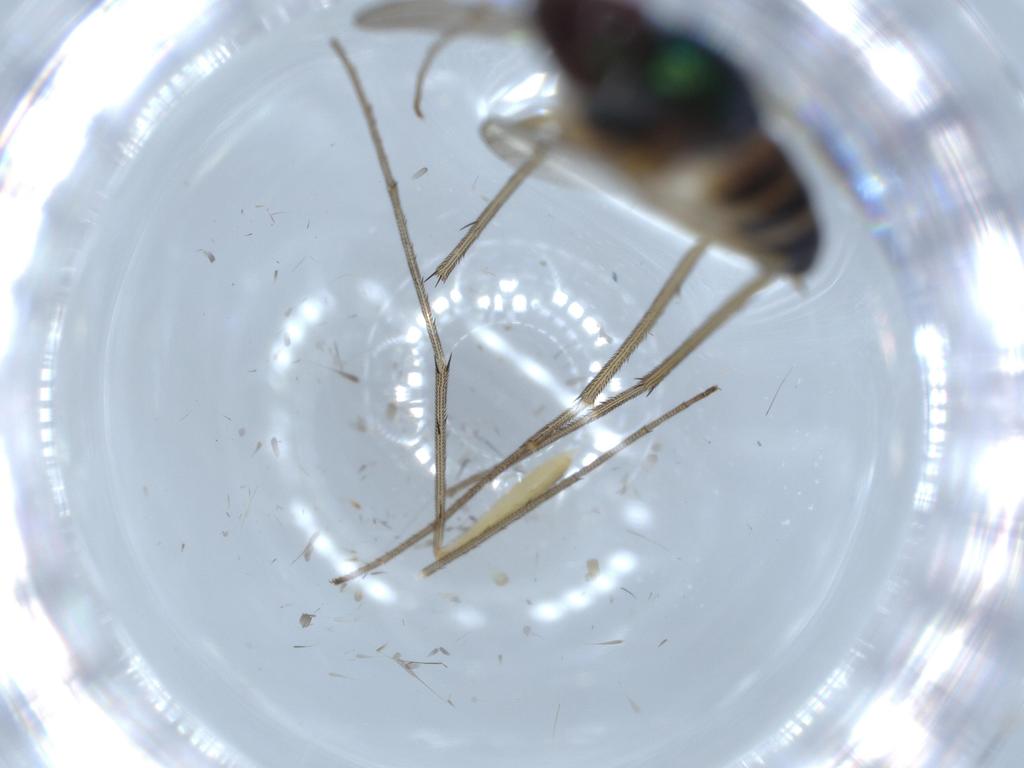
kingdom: Animalia
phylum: Arthropoda
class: Insecta
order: Diptera
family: Dolichopodidae
